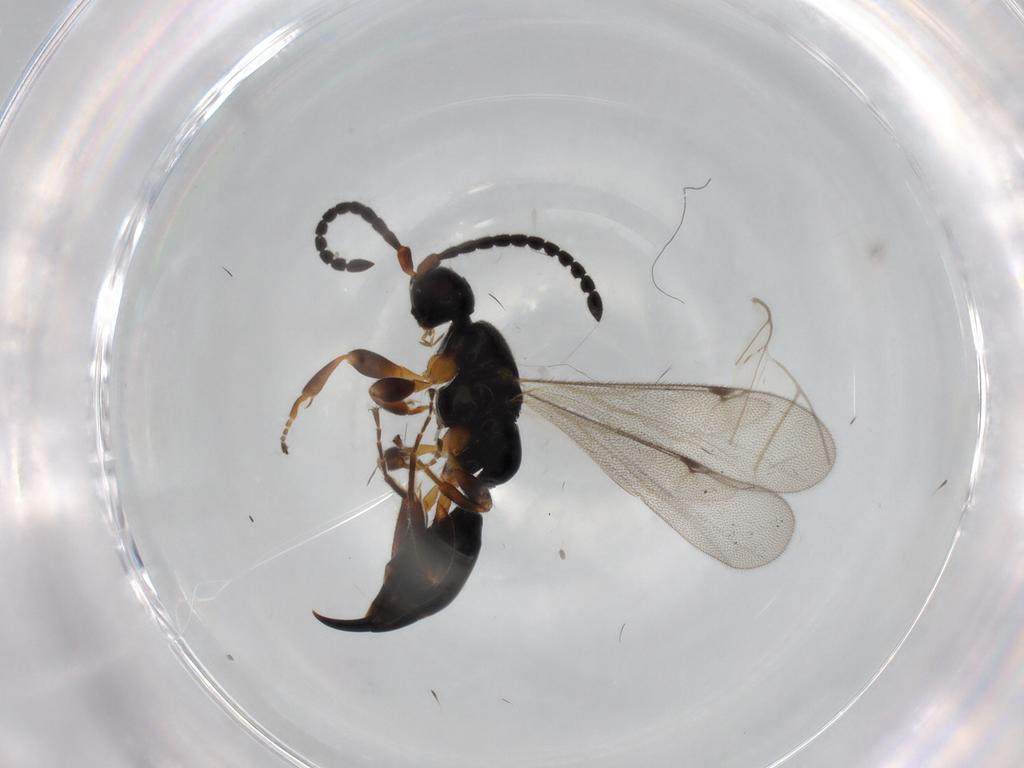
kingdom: Animalia
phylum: Arthropoda
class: Insecta
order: Hymenoptera
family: Proctotrupidae
